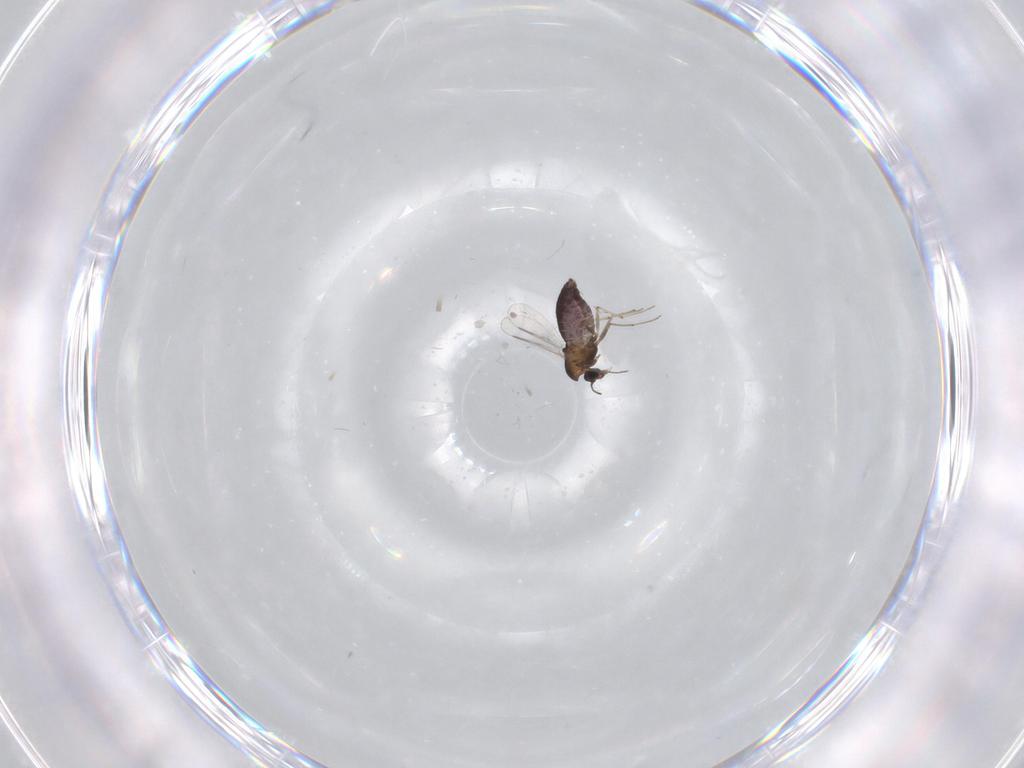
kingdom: Animalia
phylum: Arthropoda
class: Insecta
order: Diptera
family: Chironomidae
